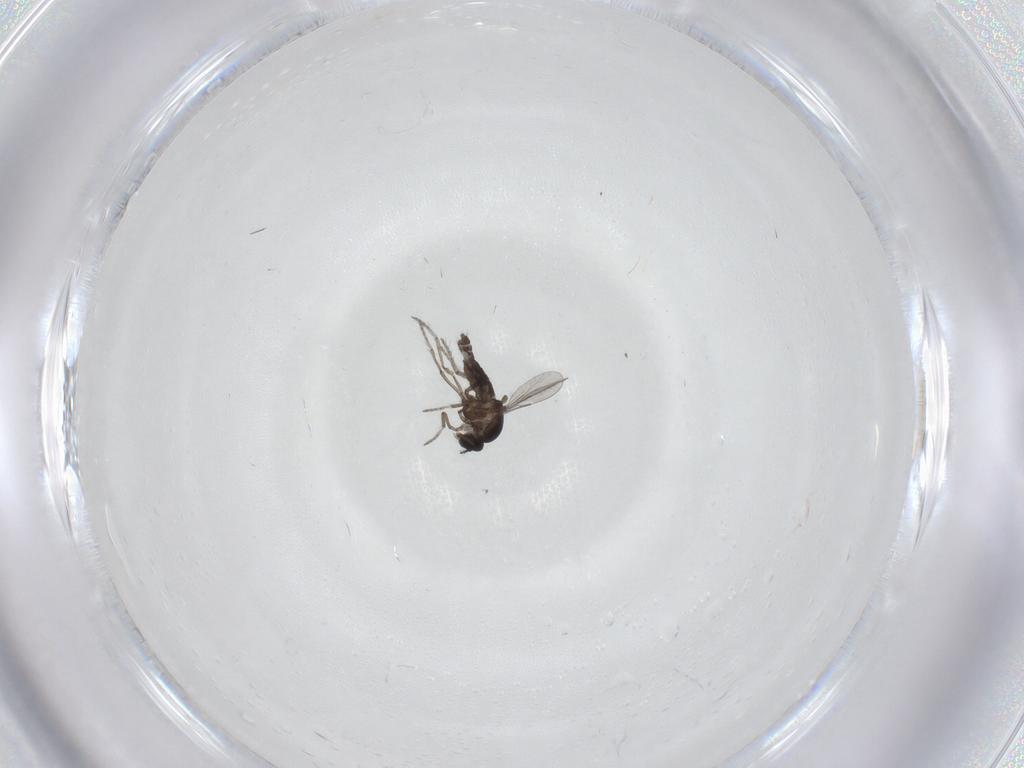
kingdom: Animalia
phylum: Arthropoda
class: Insecta
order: Diptera
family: Ceratopogonidae
